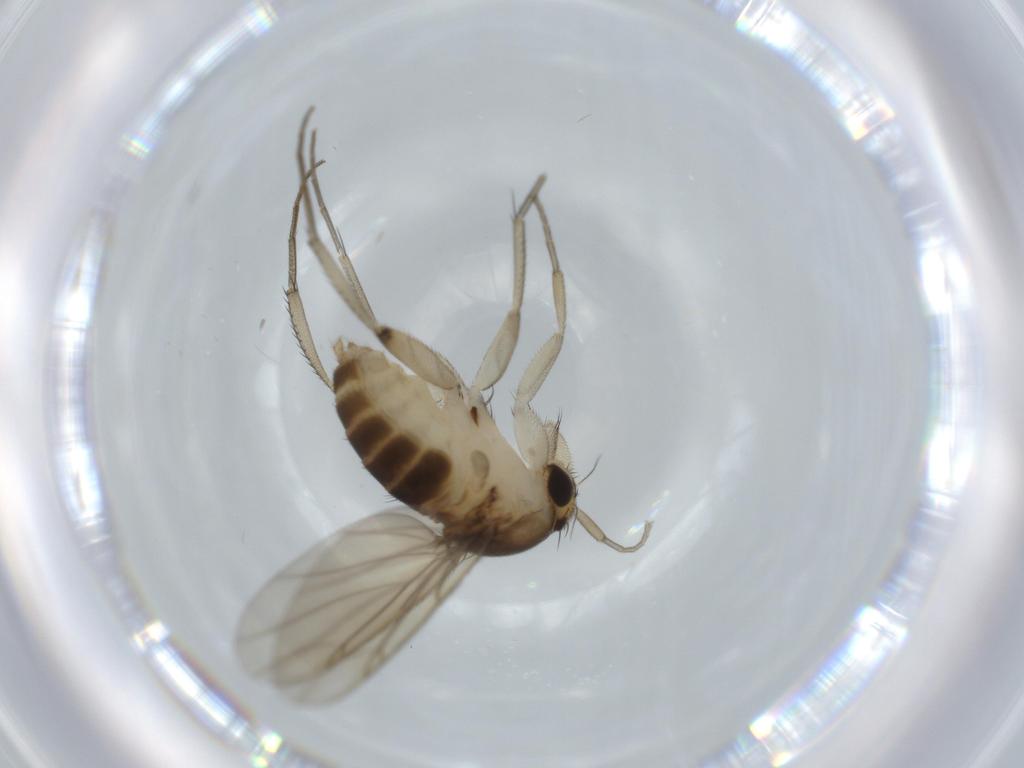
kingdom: Animalia
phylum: Arthropoda
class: Insecta
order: Diptera
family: Phoridae
